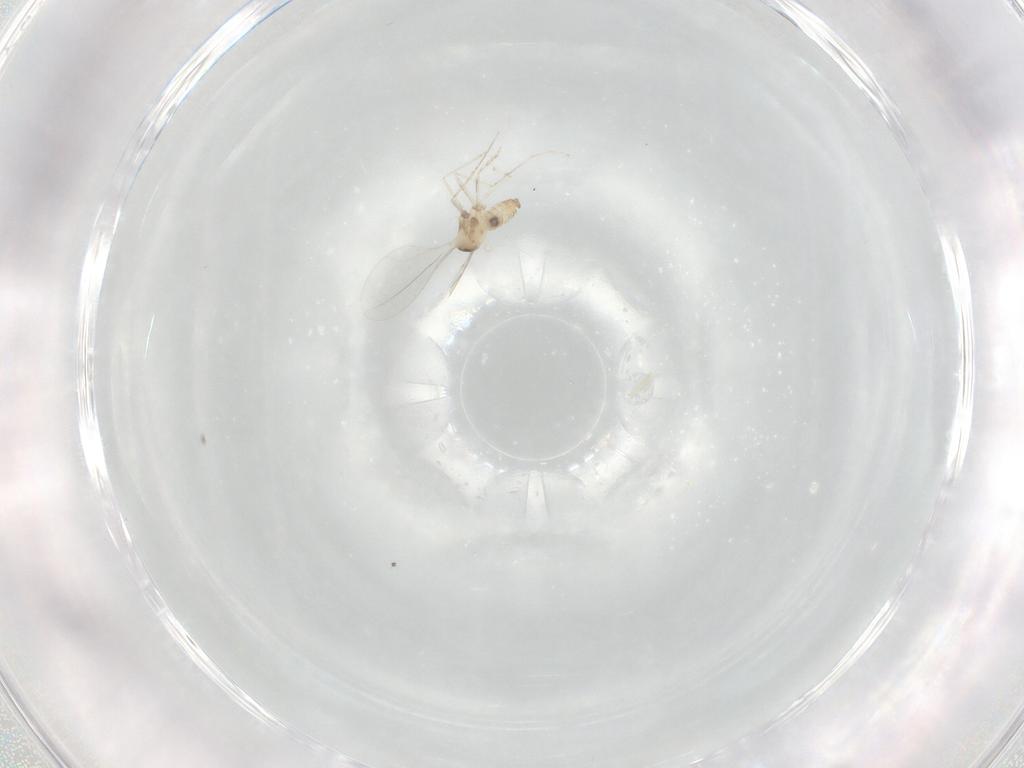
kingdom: Animalia
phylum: Arthropoda
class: Insecta
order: Diptera
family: Cecidomyiidae
